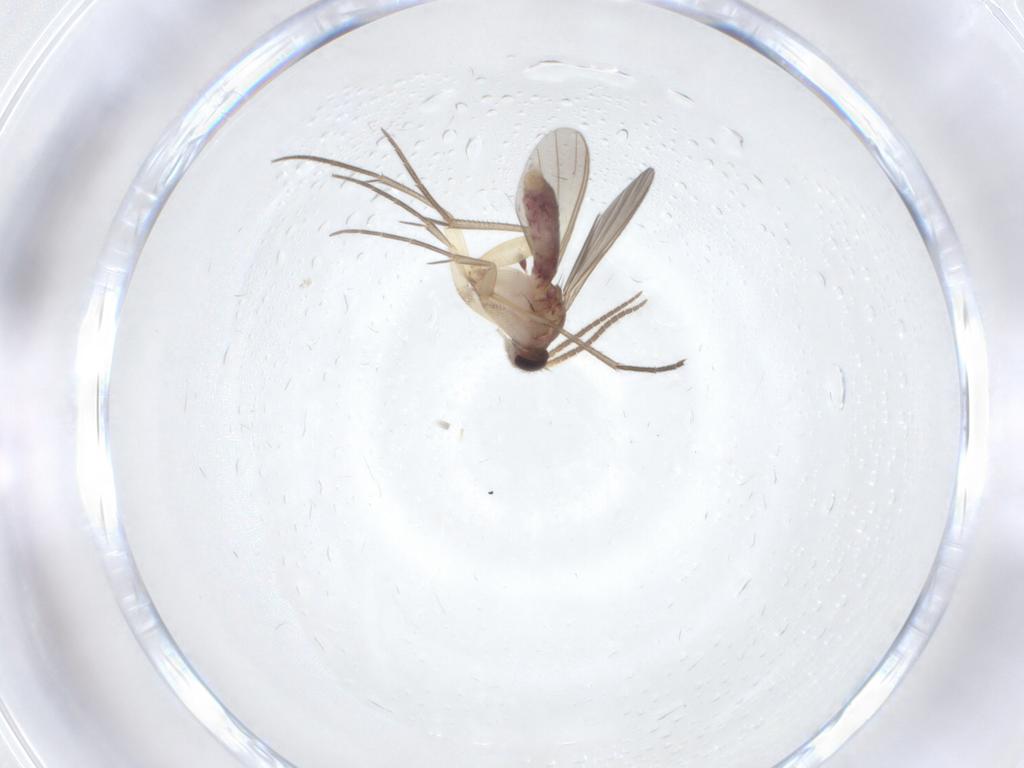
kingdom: Animalia
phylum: Arthropoda
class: Insecta
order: Diptera
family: Mycetophilidae
